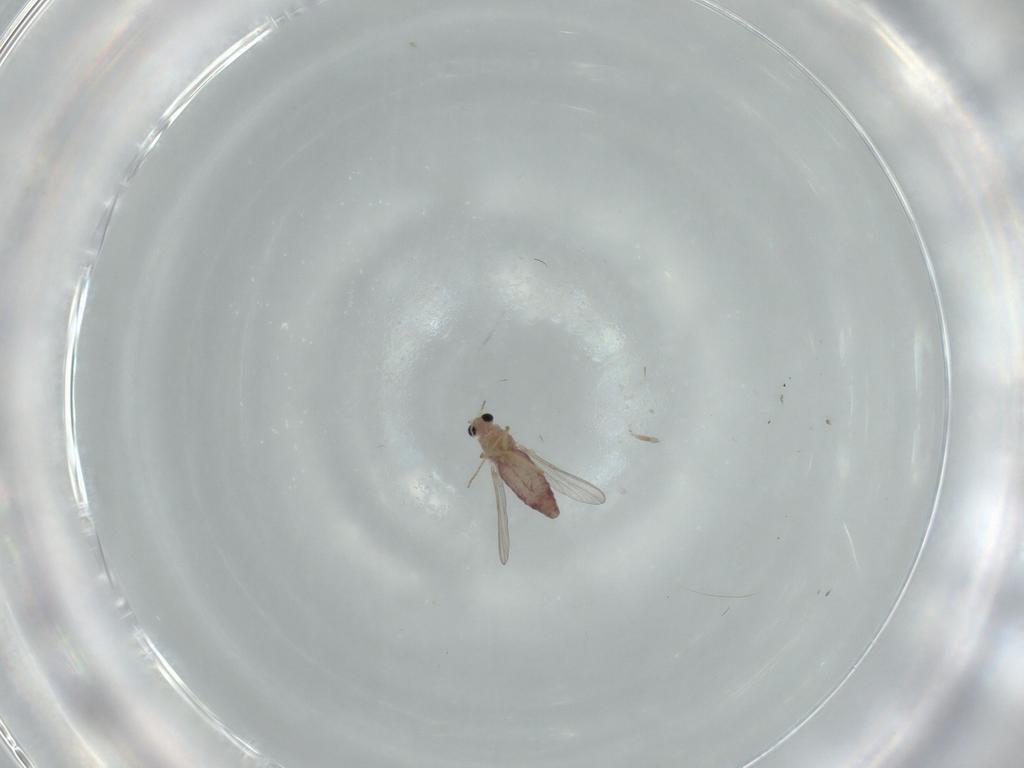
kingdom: Animalia
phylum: Arthropoda
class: Insecta
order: Diptera
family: Chironomidae
